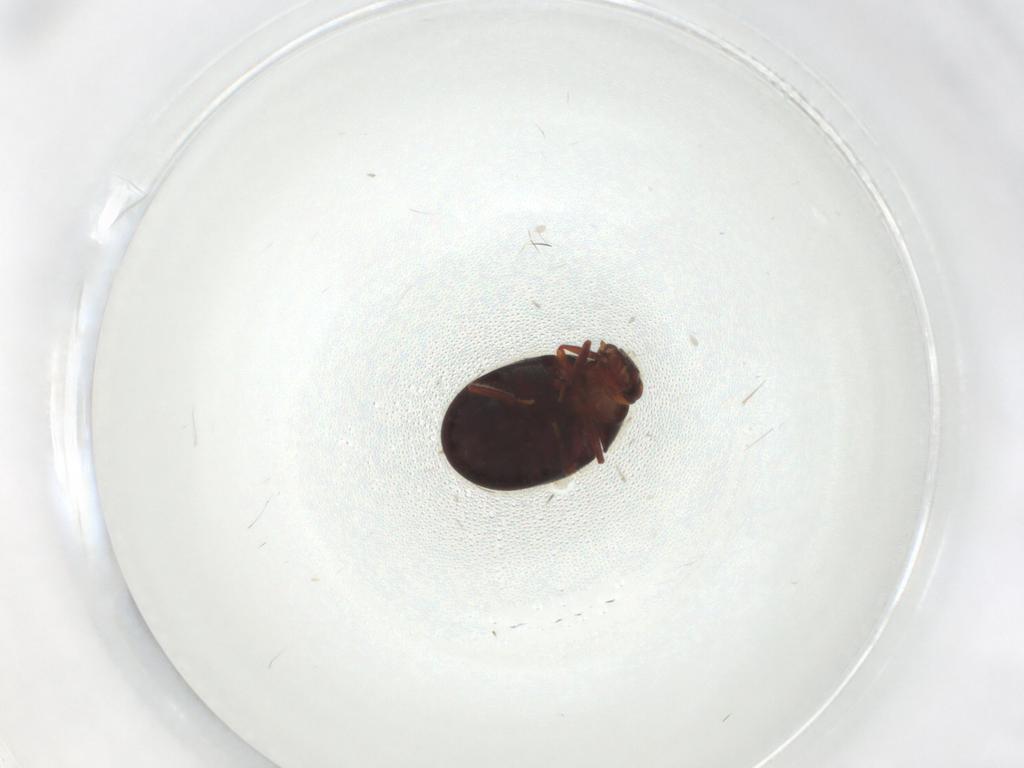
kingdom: Animalia
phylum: Arthropoda
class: Insecta
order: Coleoptera
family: Ptinidae
